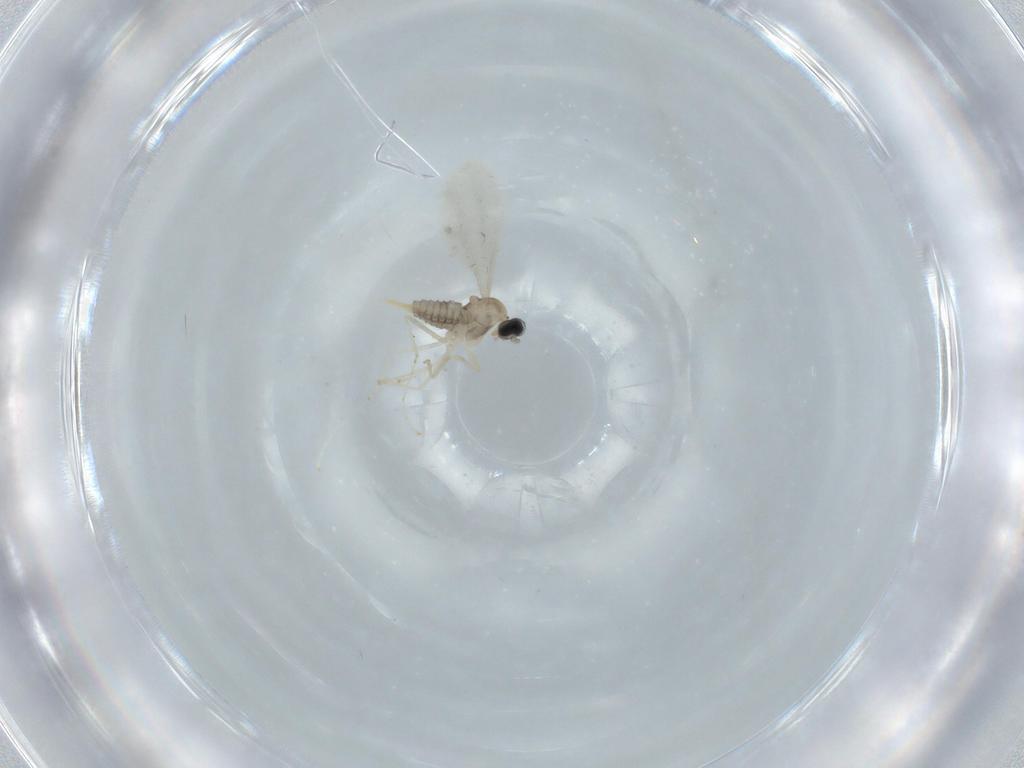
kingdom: Animalia
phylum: Arthropoda
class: Insecta
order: Diptera
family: Cecidomyiidae
